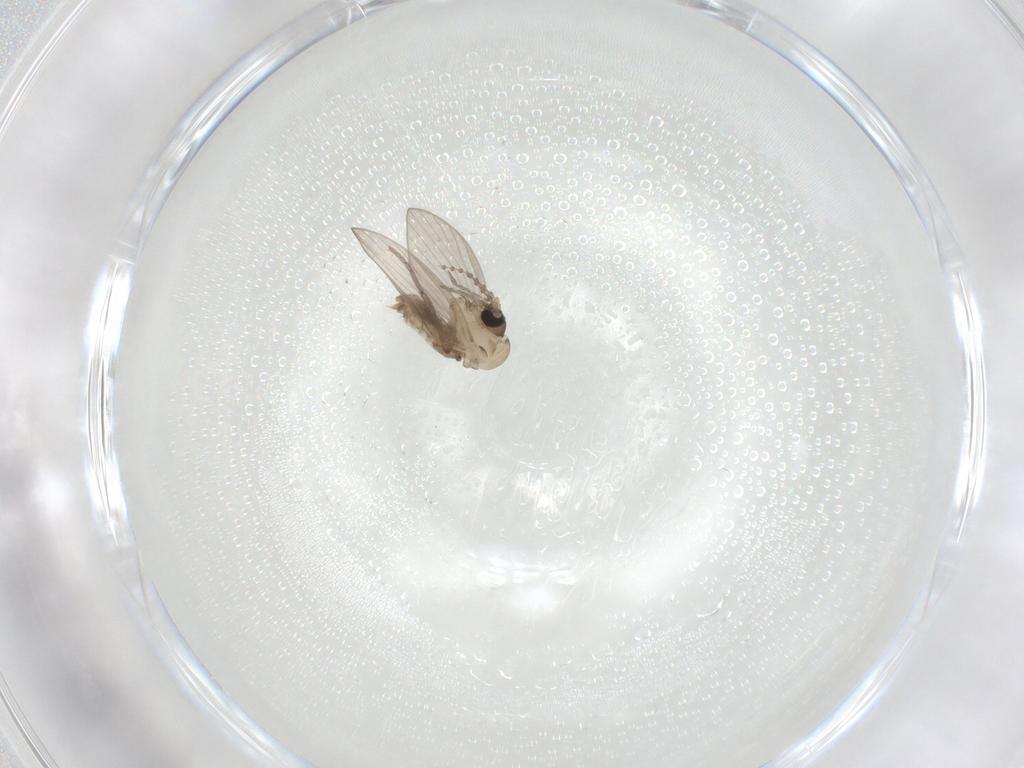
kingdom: Animalia
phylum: Arthropoda
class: Insecta
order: Diptera
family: Psychodidae
